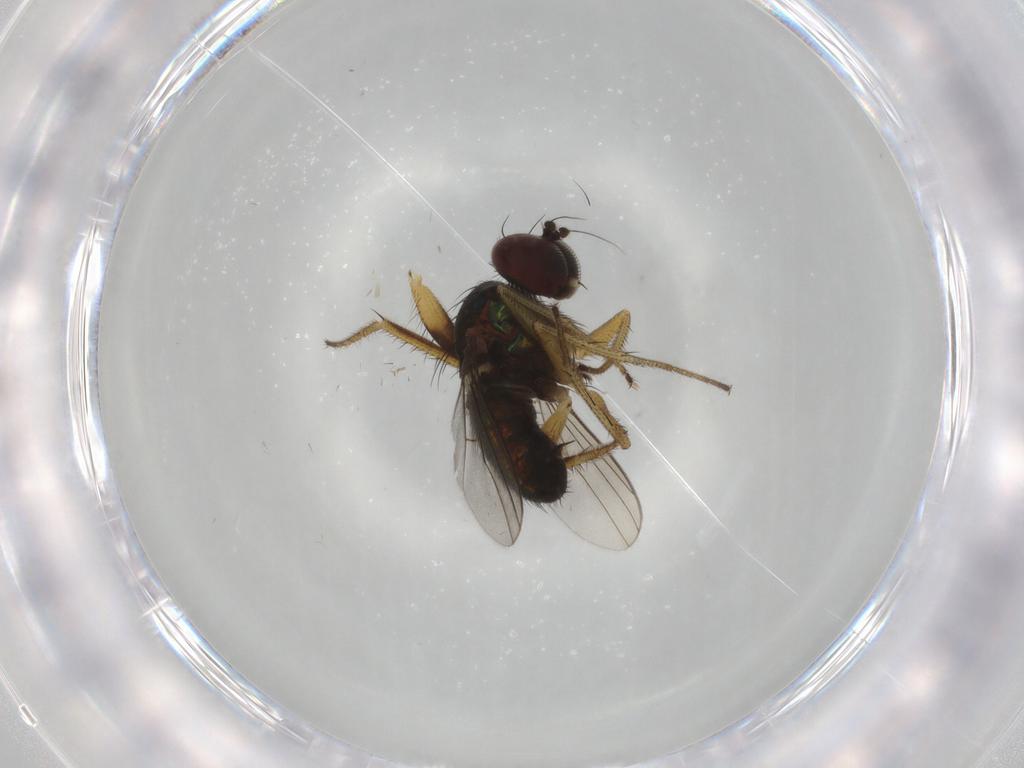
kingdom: Animalia
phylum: Arthropoda
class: Insecta
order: Diptera
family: Dolichopodidae
